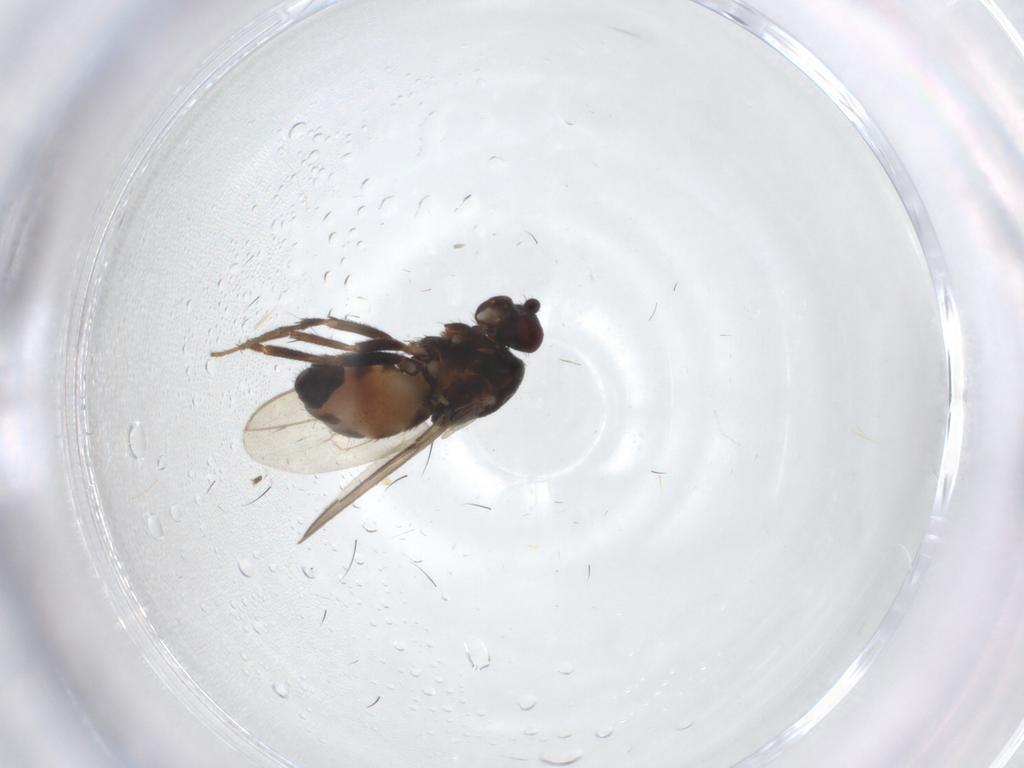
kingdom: Animalia
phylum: Arthropoda
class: Insecta
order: Diptera
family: Sphaeroceridae
